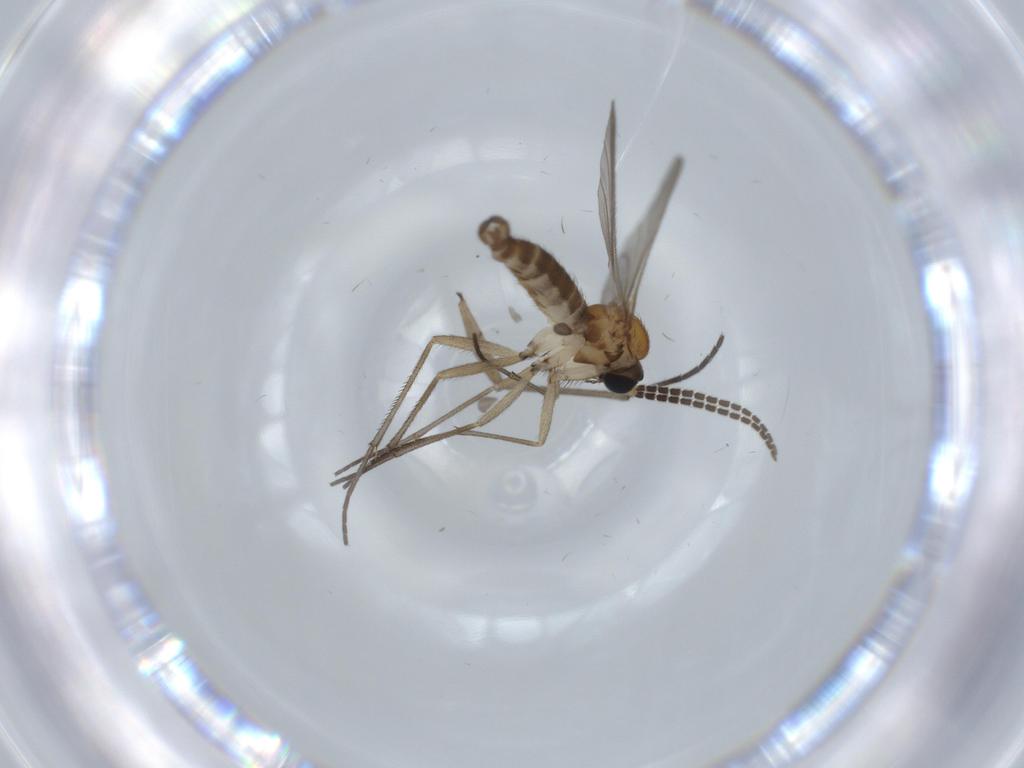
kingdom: Animalia
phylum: Arthropoda
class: Insecta
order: Diptera
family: Sciaridae
